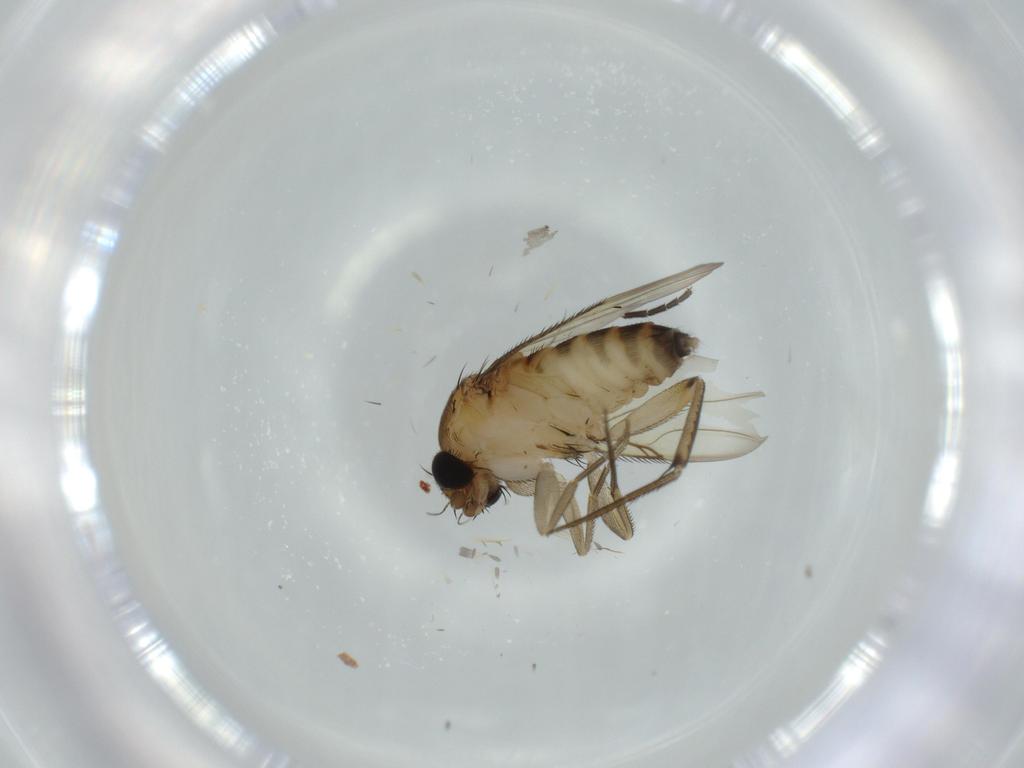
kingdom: Animalia
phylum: Arthropoda
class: Insecta
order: Diptera
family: Phoridae
